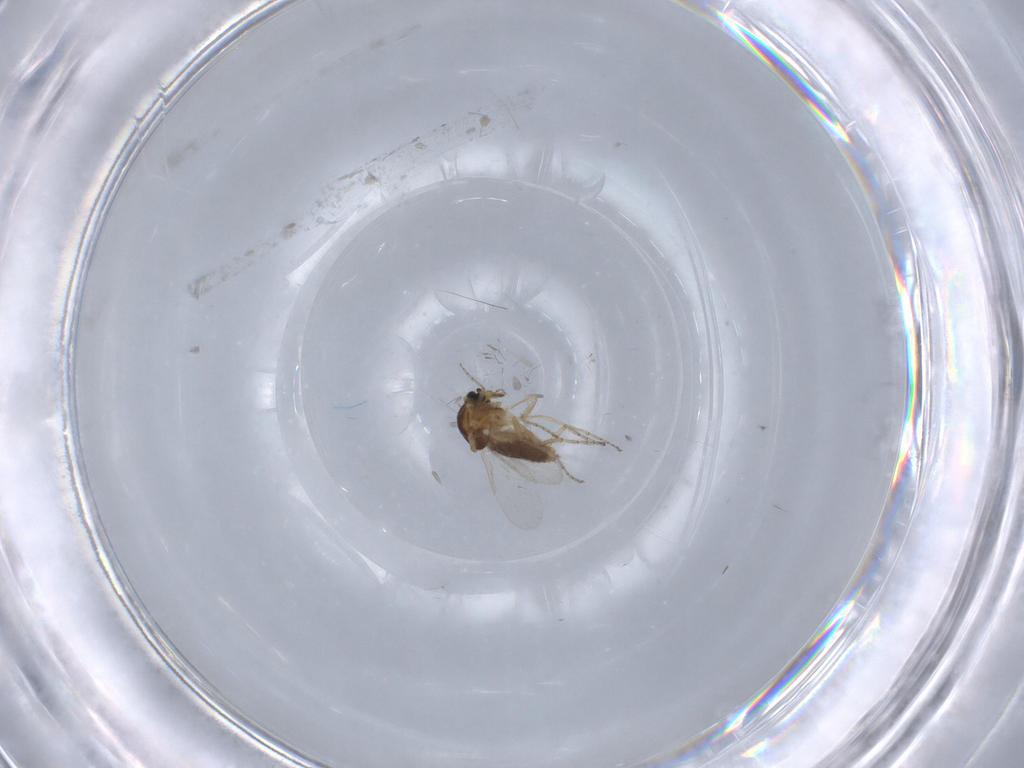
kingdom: Animalia
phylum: Arthropoda
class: Insecta
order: Diptera
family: Ceratopogonidae
